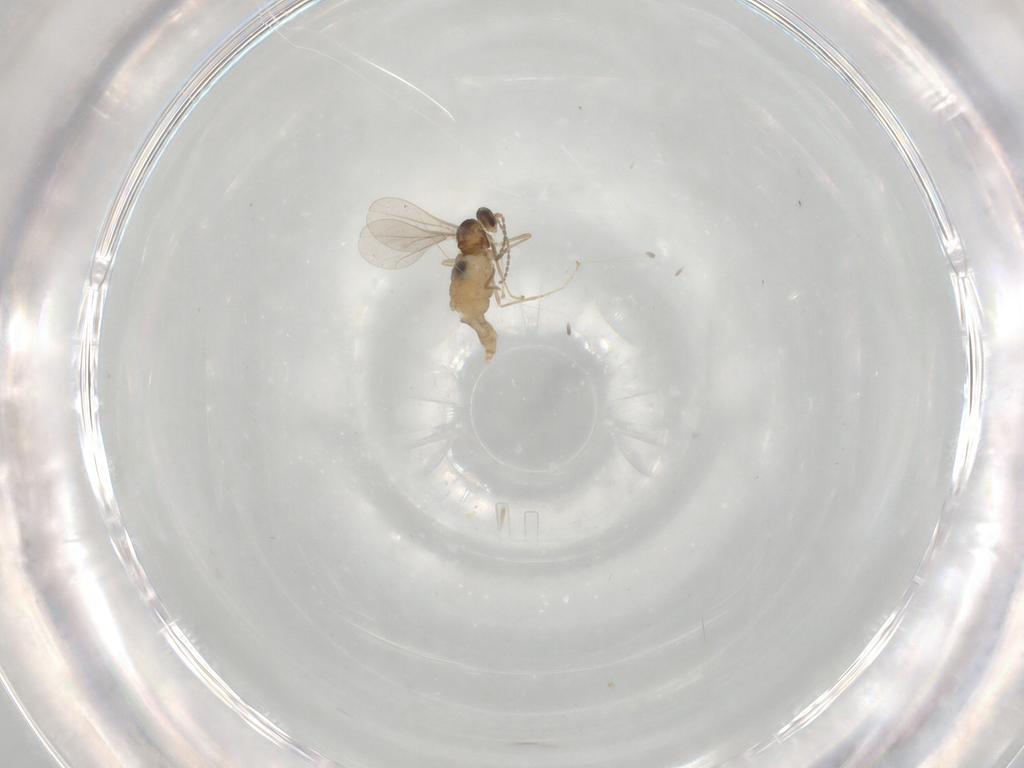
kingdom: Animalia
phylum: Arthropoda
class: Insecta
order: Diptera
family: Cecidomyiidae
